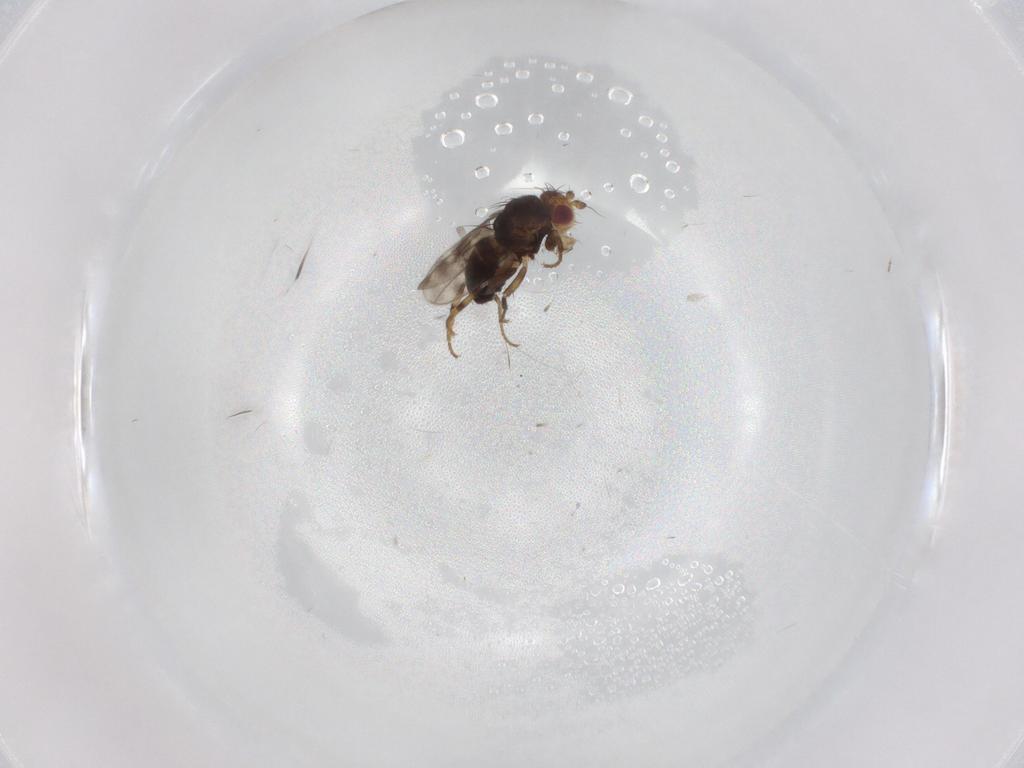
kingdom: Animalia
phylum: Arthropoda
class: Insecta
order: Diptera
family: Sphaeroceridae
